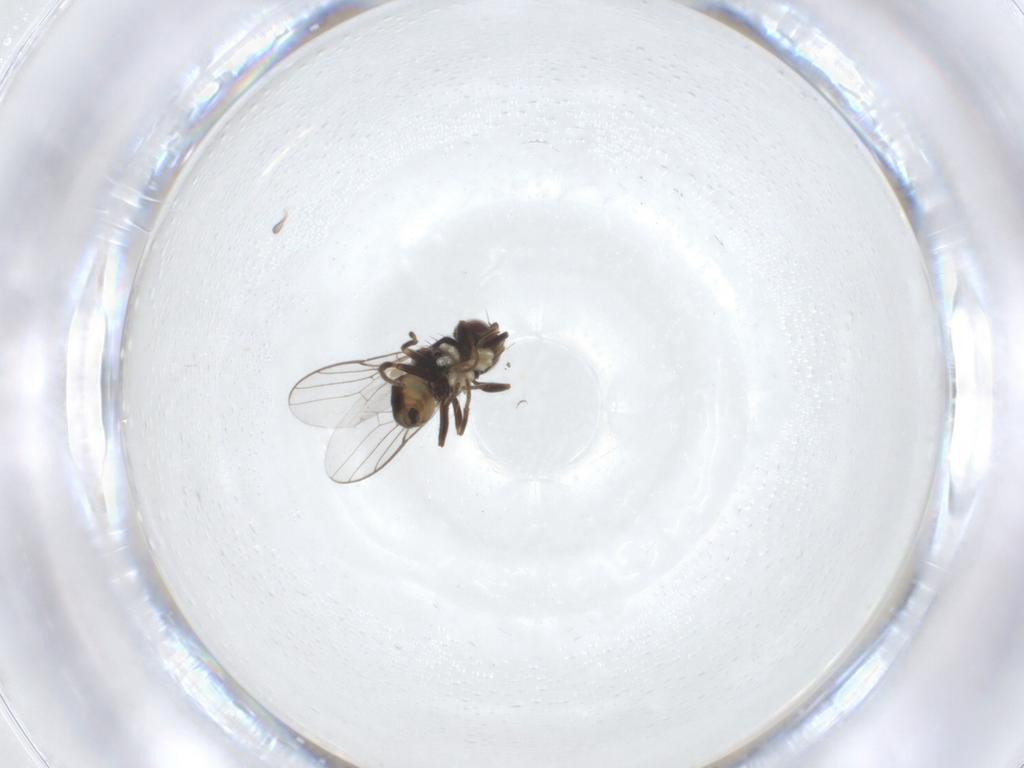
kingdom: Animalia
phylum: Arthropoda
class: Insecta
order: Diptera
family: Chloropidae
